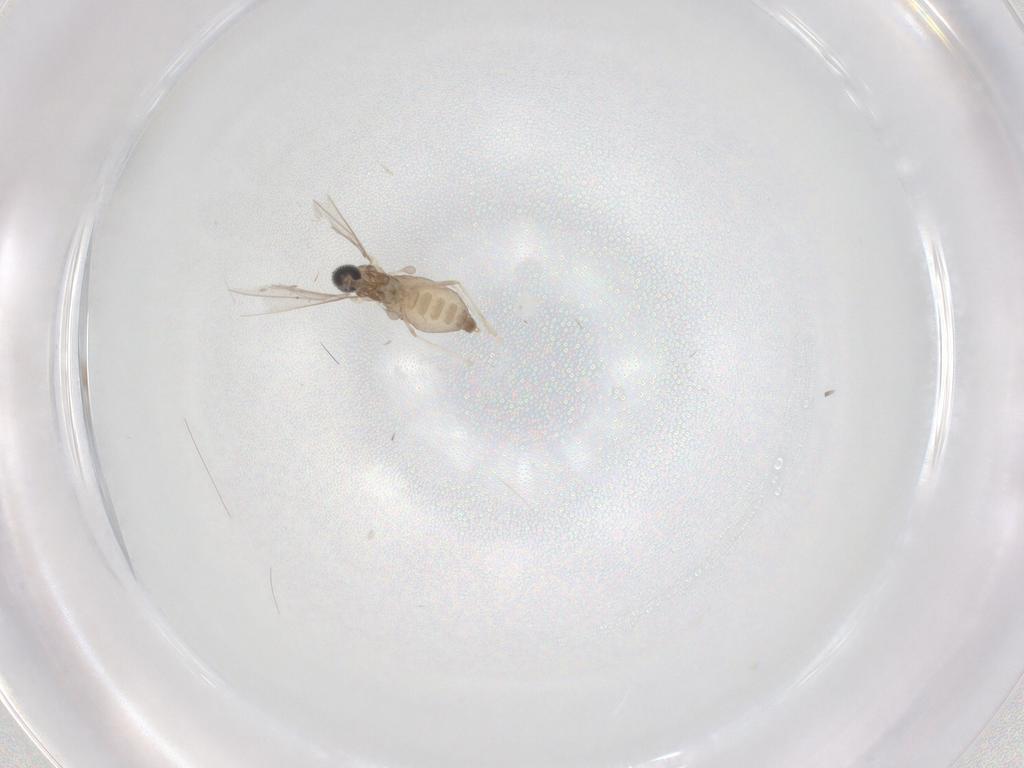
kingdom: Animalia
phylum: Arthropoda
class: Insecta
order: Diptera
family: Cecidomyiidae
